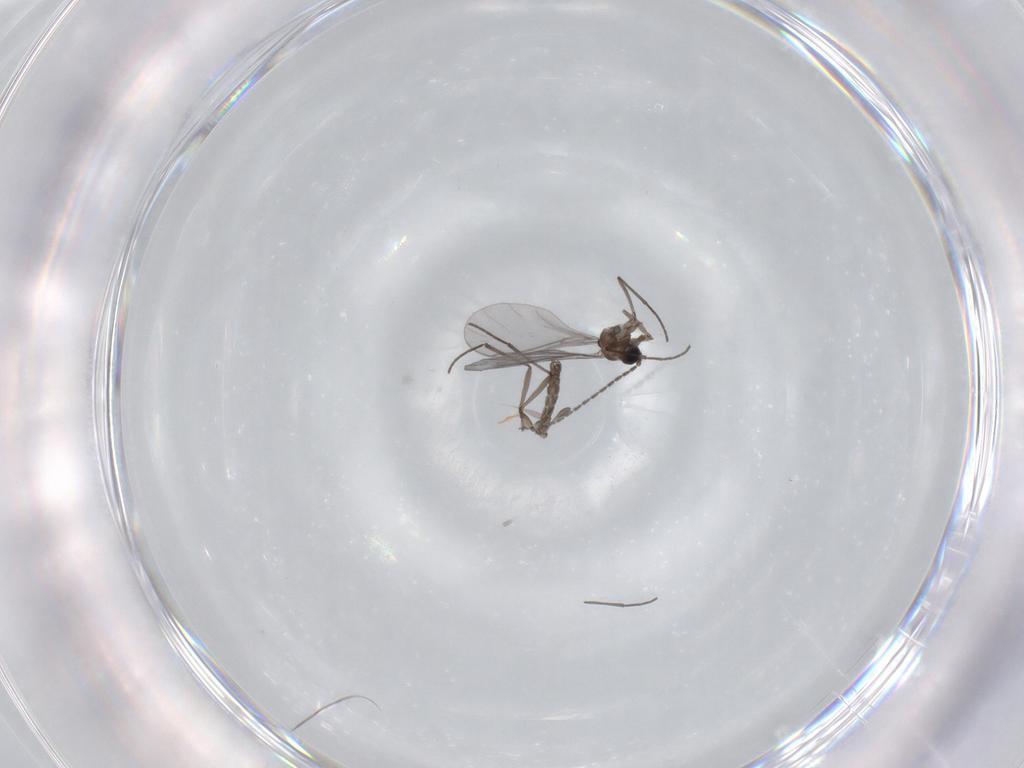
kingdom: Animalia
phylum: Arthropoda
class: Insecta
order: Diptera
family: Sciaridae
